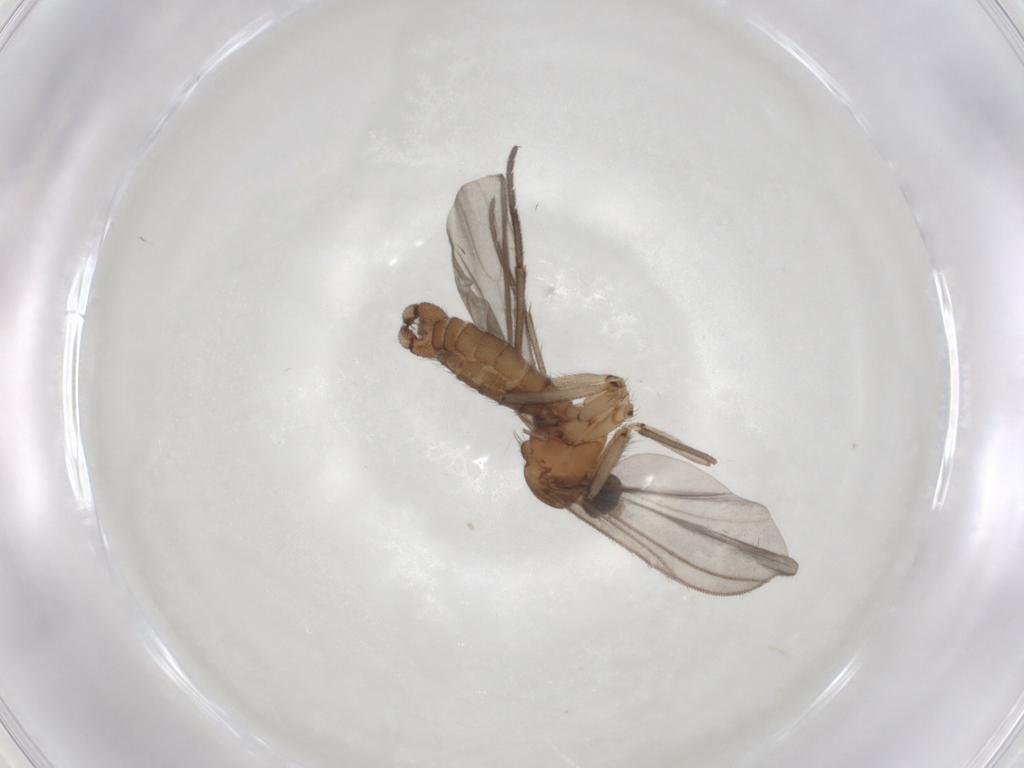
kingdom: Animalia
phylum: Arthropoda
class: Insecta
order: Diptera
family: Sciaridae
